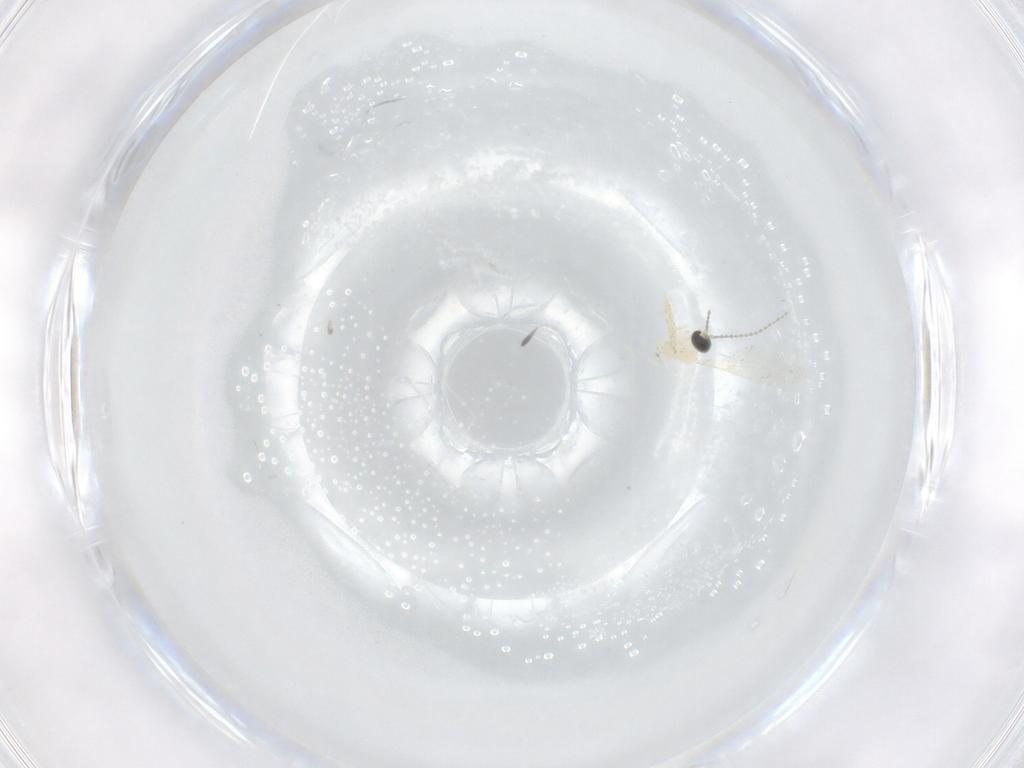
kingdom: Animalia
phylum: Arthropoda
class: Insecta
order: Diptera
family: Cecidomyiidae
